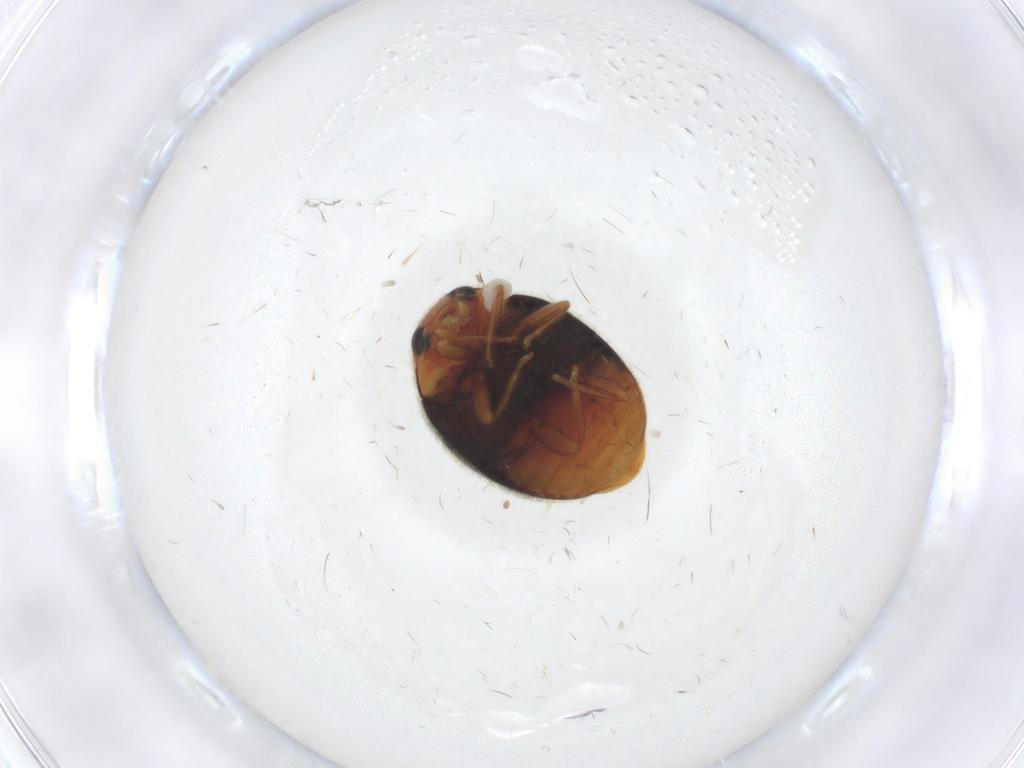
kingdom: Animalia
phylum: Arthropoda
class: Insecta
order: Coleoptera
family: Coccinellidae
